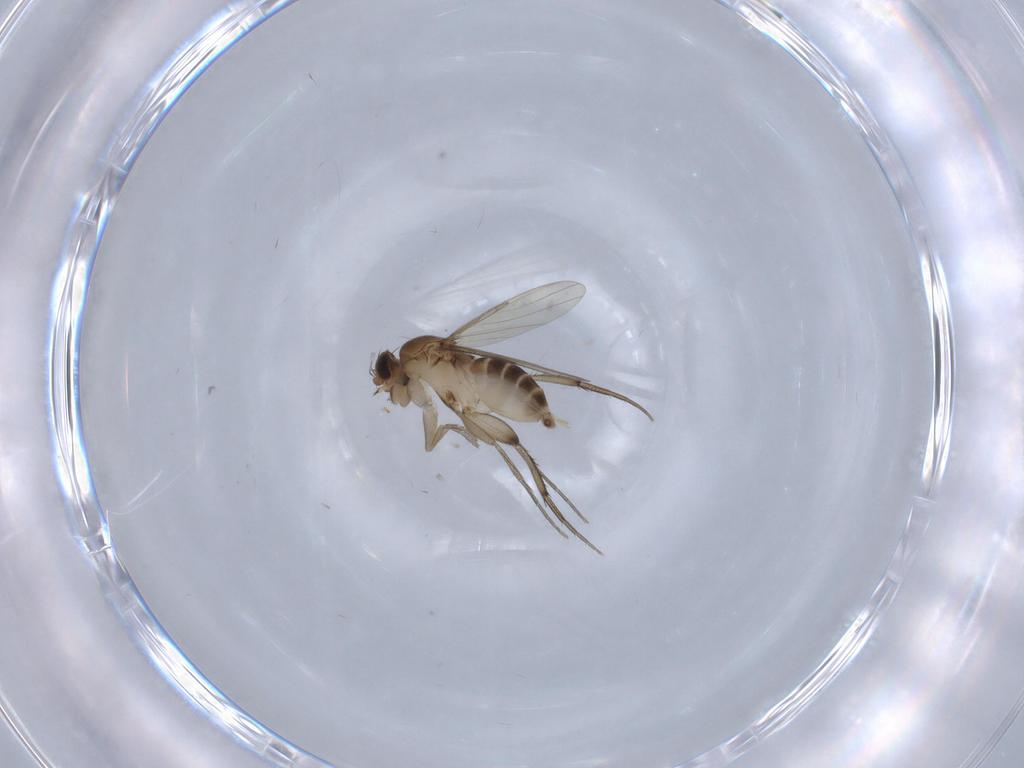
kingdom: Animalia
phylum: Arthropoda
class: Insecta
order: Diptera
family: Phoridae
